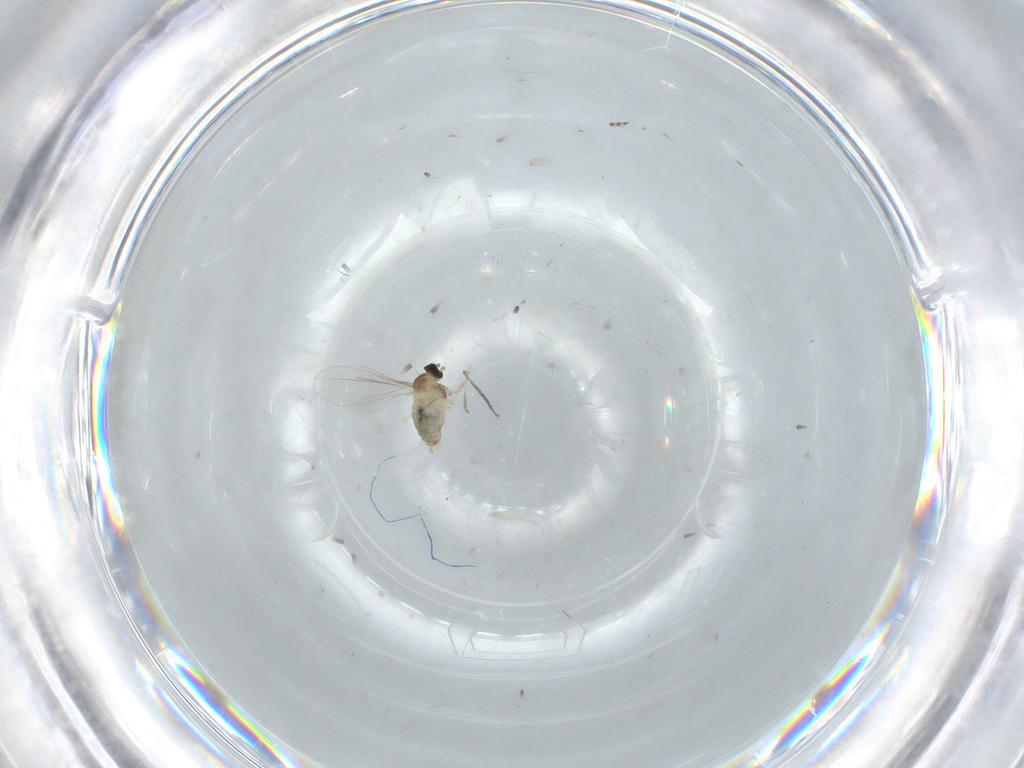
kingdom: Animalia
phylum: Arthropoda
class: Insecta
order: Diptera
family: Cecidomyiidae
